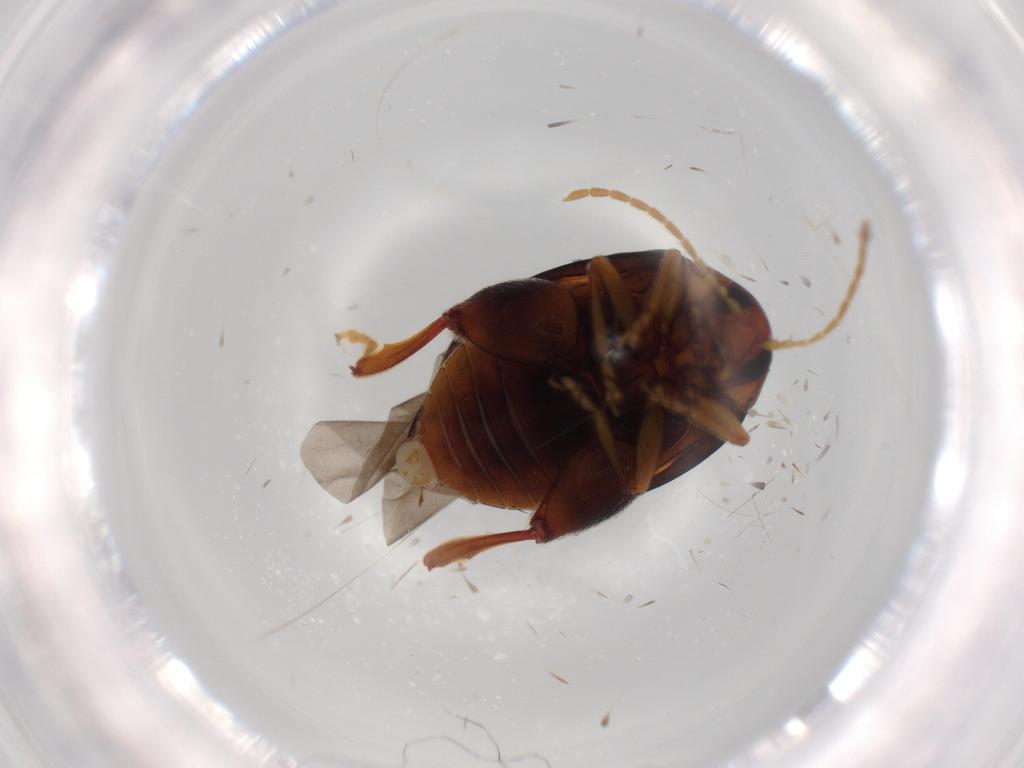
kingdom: Animalia
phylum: Arthropoda
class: Insecta
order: Coleoptera
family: Chrysomelidae
